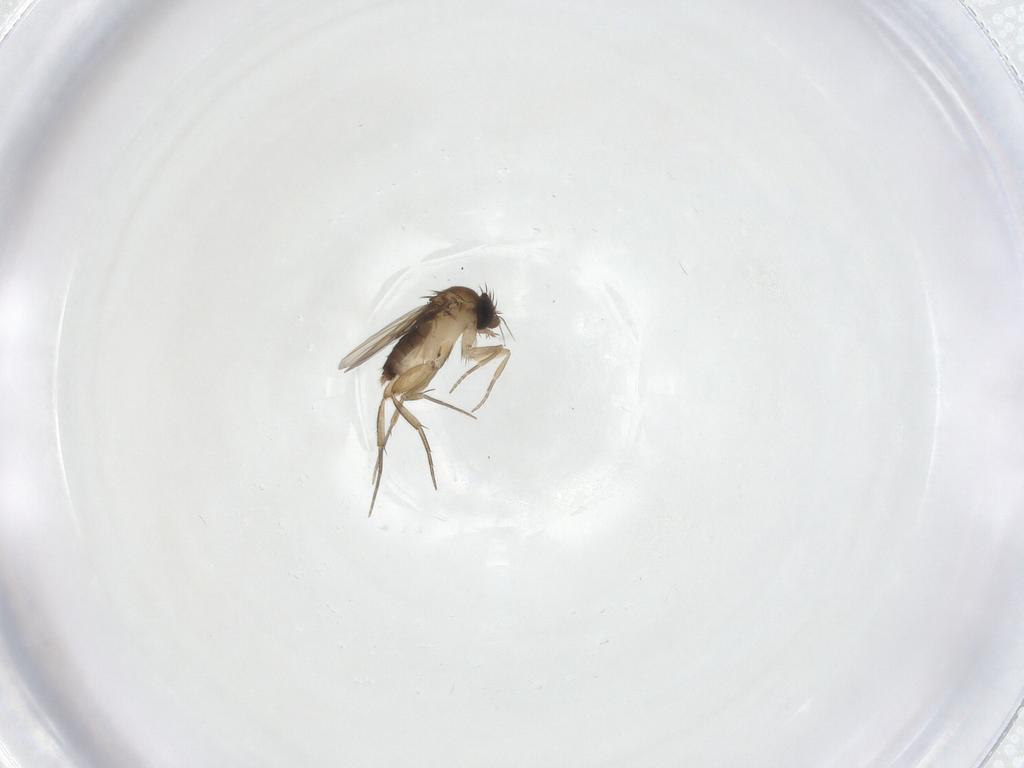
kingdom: Animalia
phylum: Arthropoda
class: Insecta
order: Diptera
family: Phoridae
